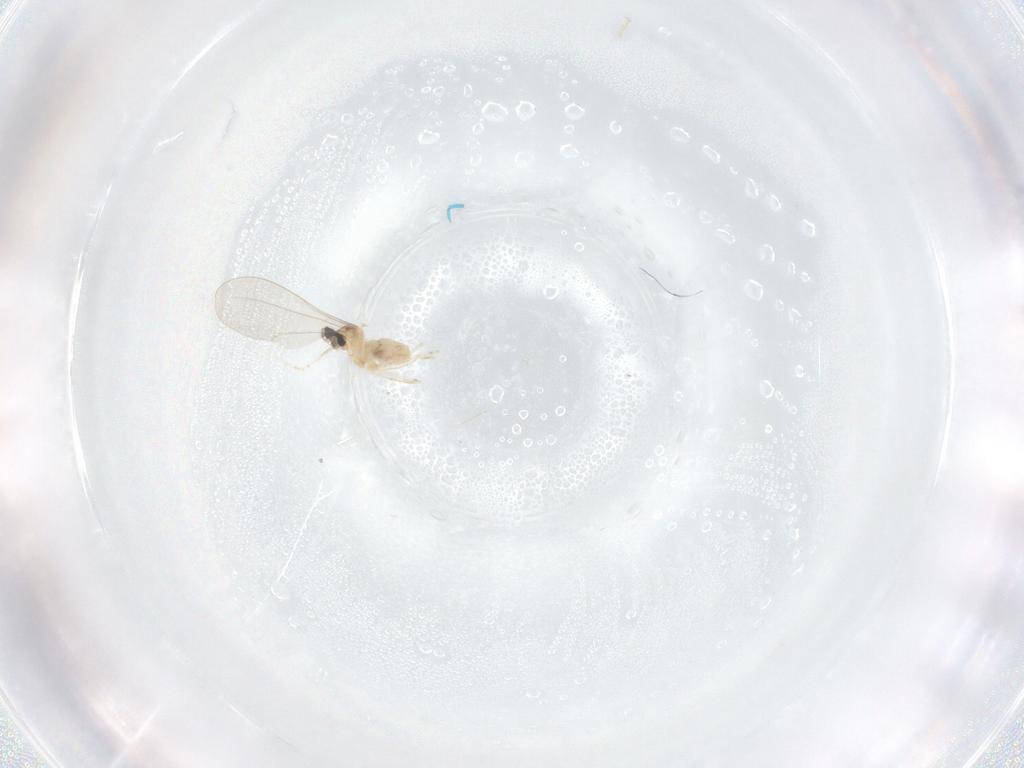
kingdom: Animalia
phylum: Arthropoda
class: Insecta
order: Diptera
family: Cecidomyiidae
